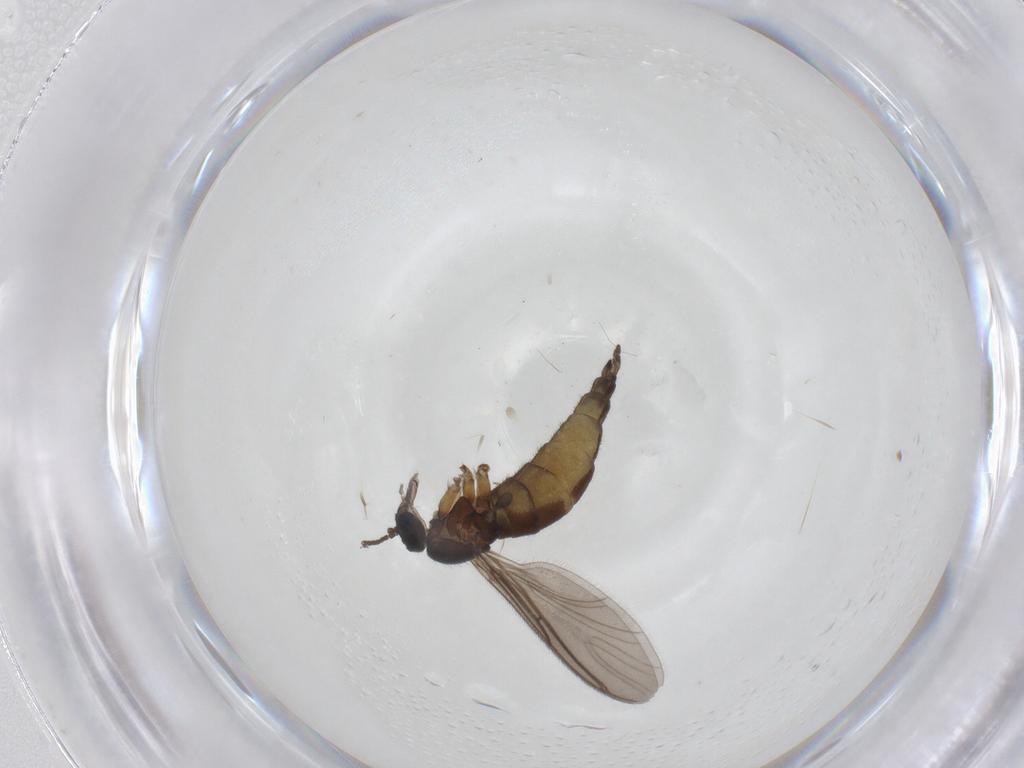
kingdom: Animalia
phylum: Arthropoda
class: Insecta
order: Diptera
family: Sciaridae
